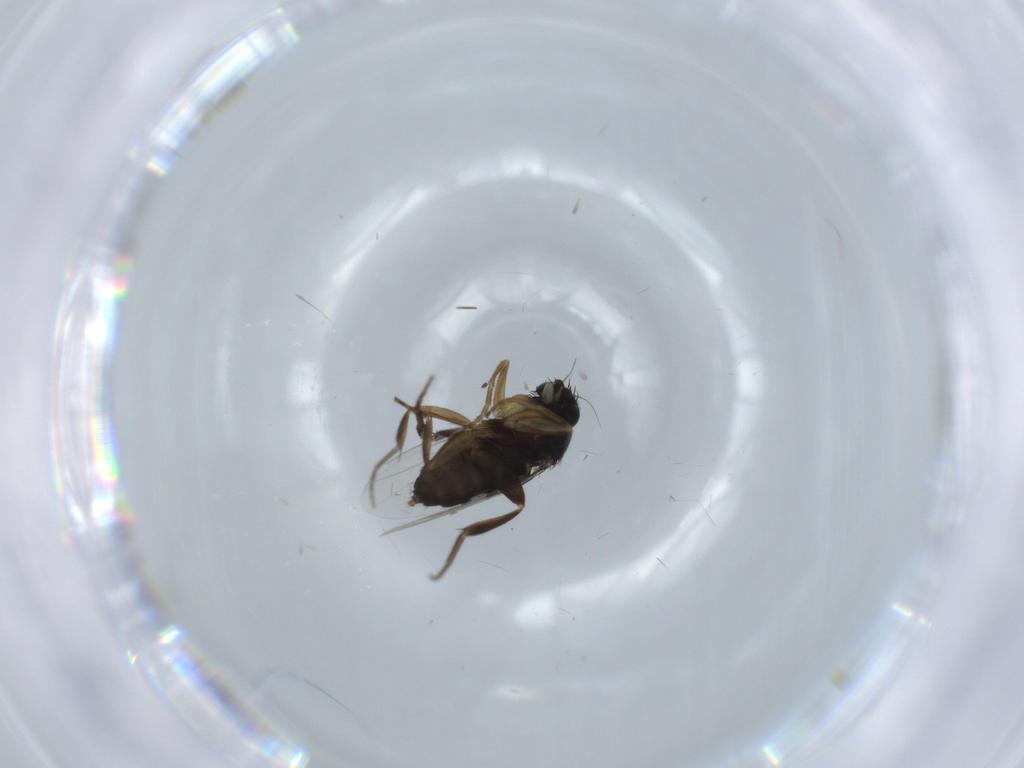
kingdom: Animalia
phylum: Arthropoda
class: Insecta
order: Diptera
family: Phoridae
